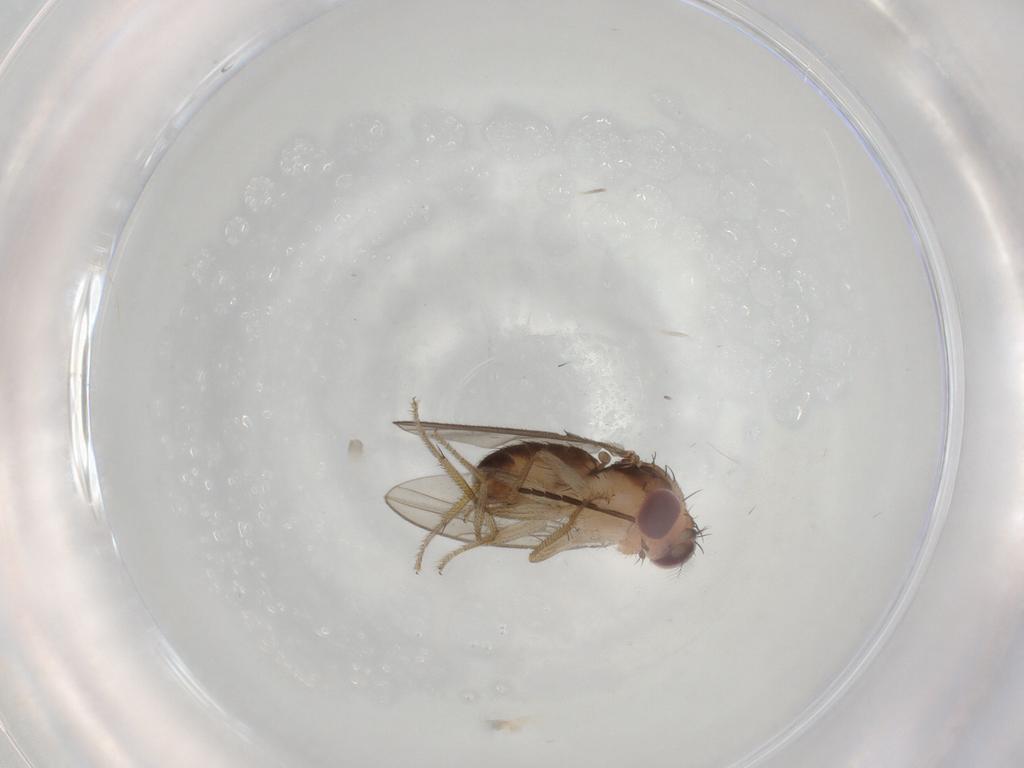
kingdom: Animalia
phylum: Arthropoda
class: Insecta
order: Diptera
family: Drosophilidae
